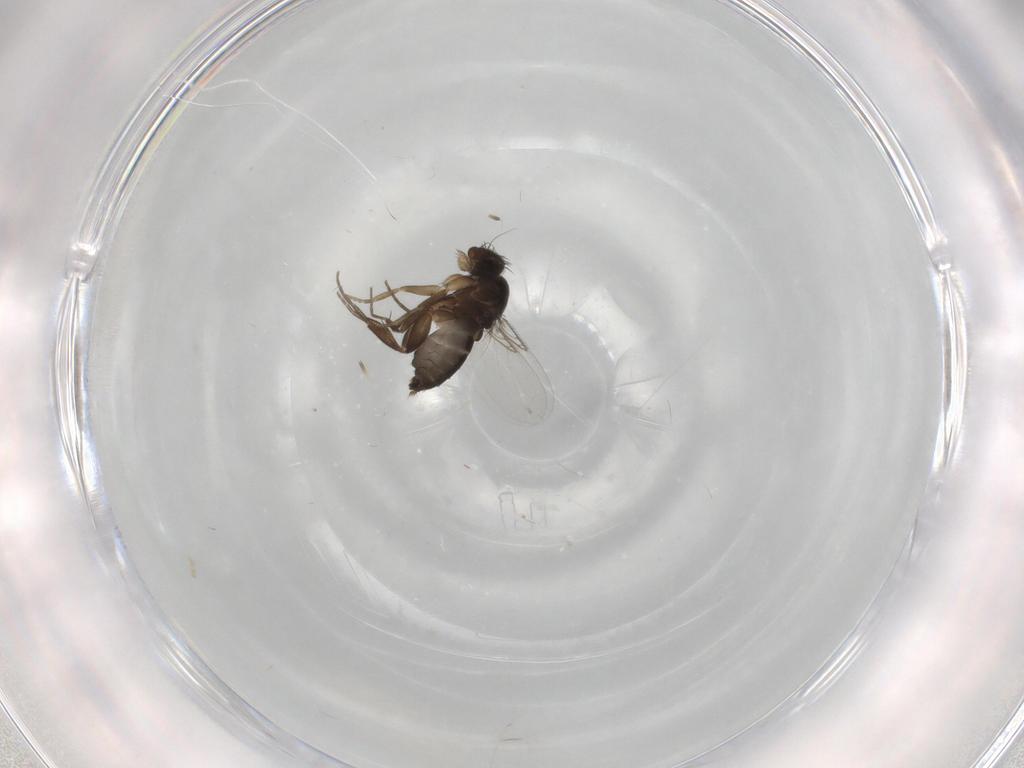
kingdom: Animalia
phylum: Arthropoda
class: Insecta
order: Diptera
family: Phoridae
